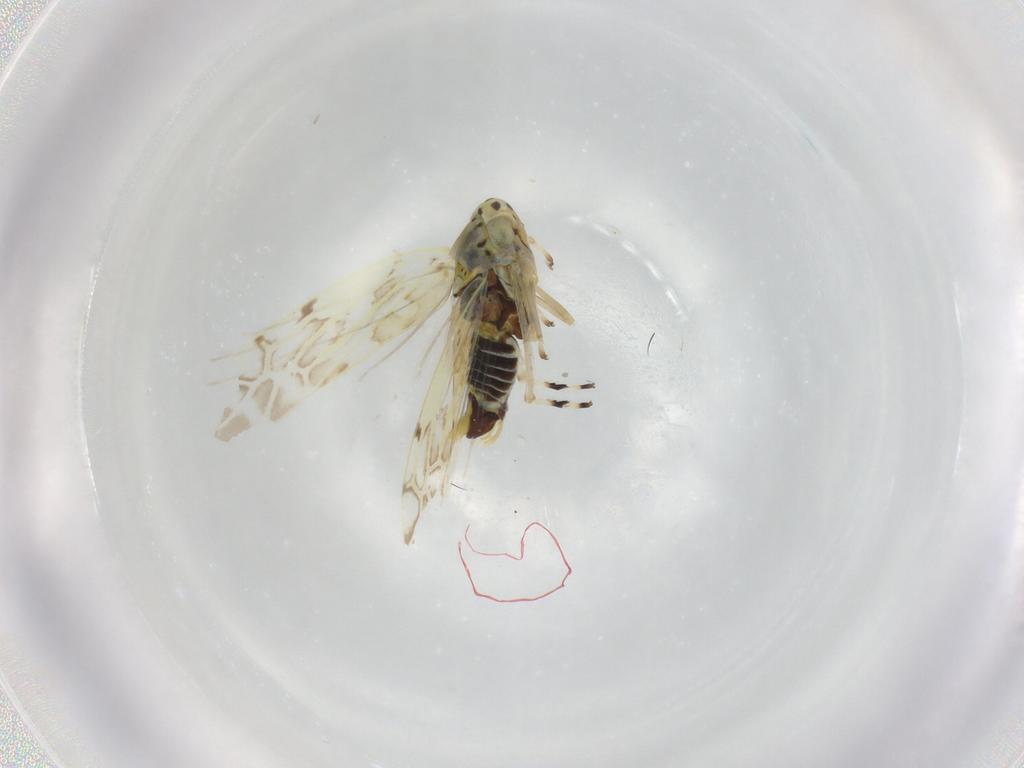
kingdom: Animalia
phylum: Arthropoda
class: Insecta
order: Hemiptera
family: Cicadellidae
